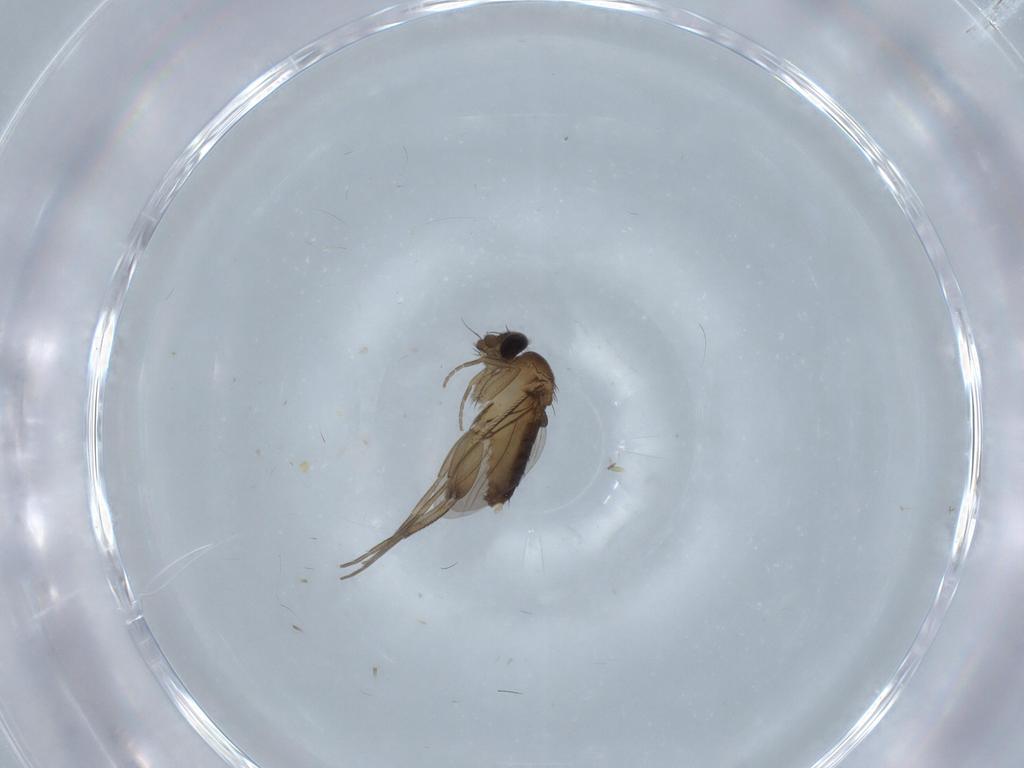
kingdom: Animalia
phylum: Arthropoda
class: Insecta
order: Diptera
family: Phoridae
